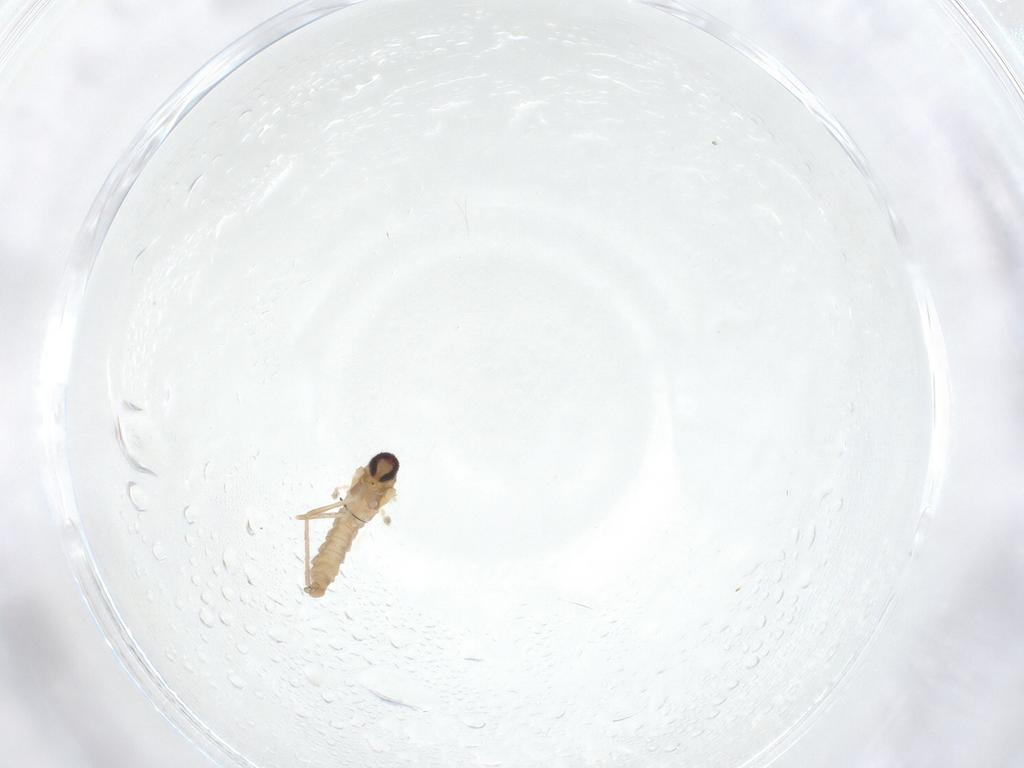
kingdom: Animalia
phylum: Arthropoda
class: Insecta
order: Diptera
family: Cecidomyiidae
